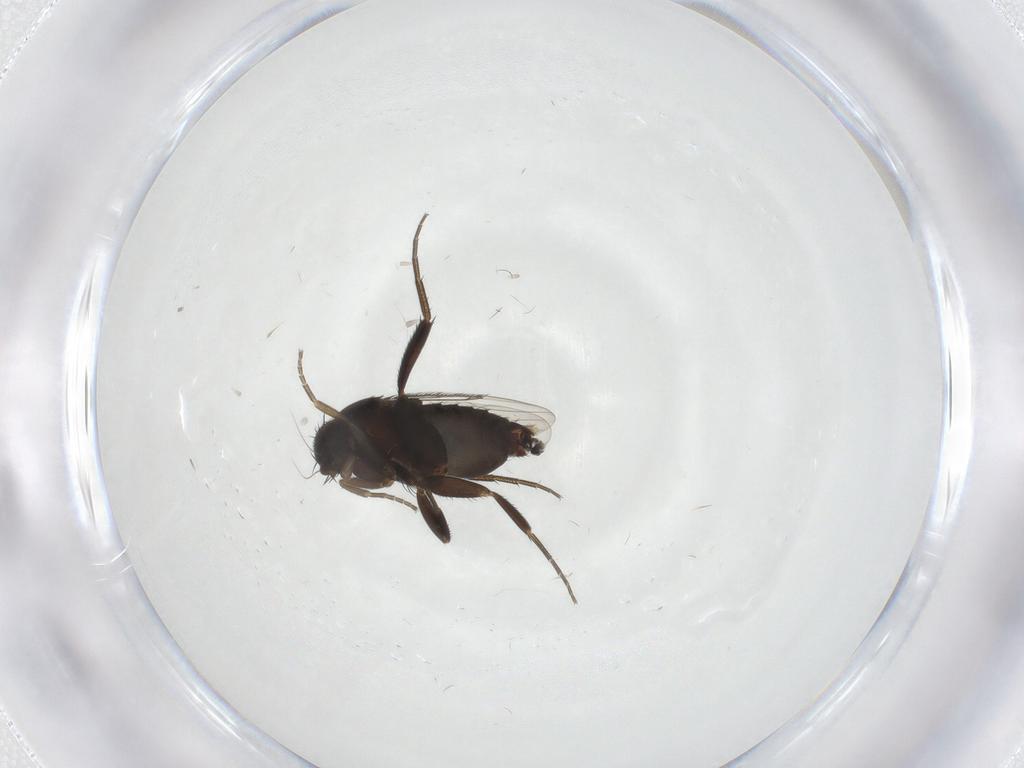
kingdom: Animalia
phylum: Arthropoda
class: Insecta
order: Diptera
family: Phoridae
